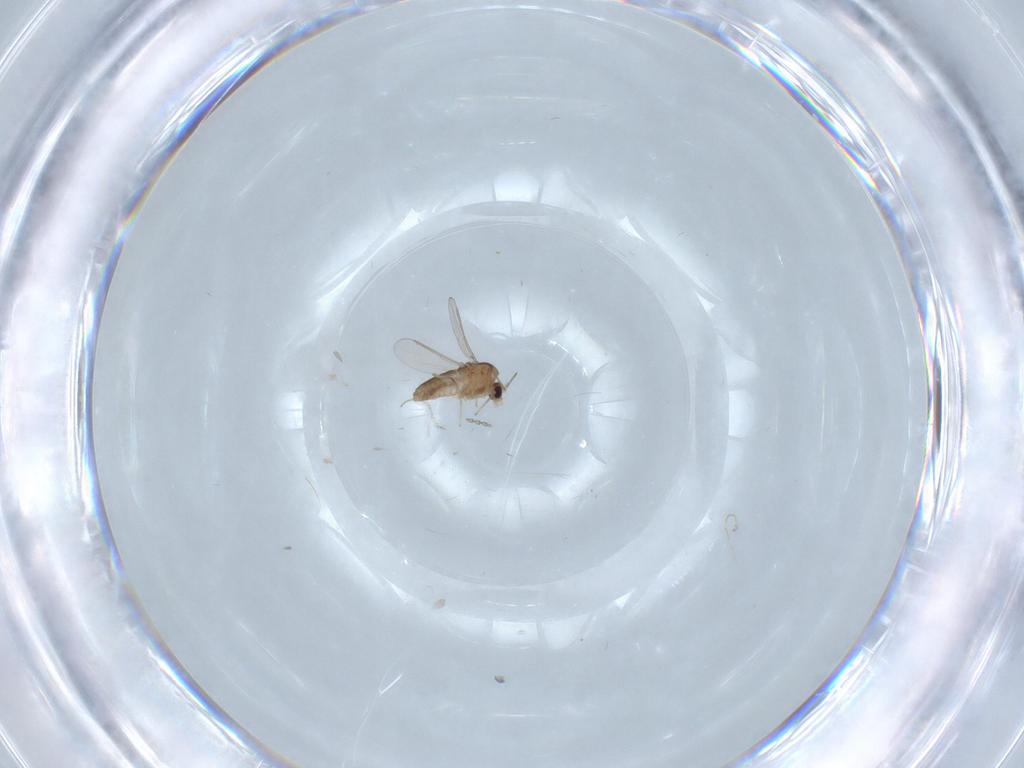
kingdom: Animalia
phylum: Arthropoda
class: Insecta
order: Diptera
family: Cecidomyiidae
